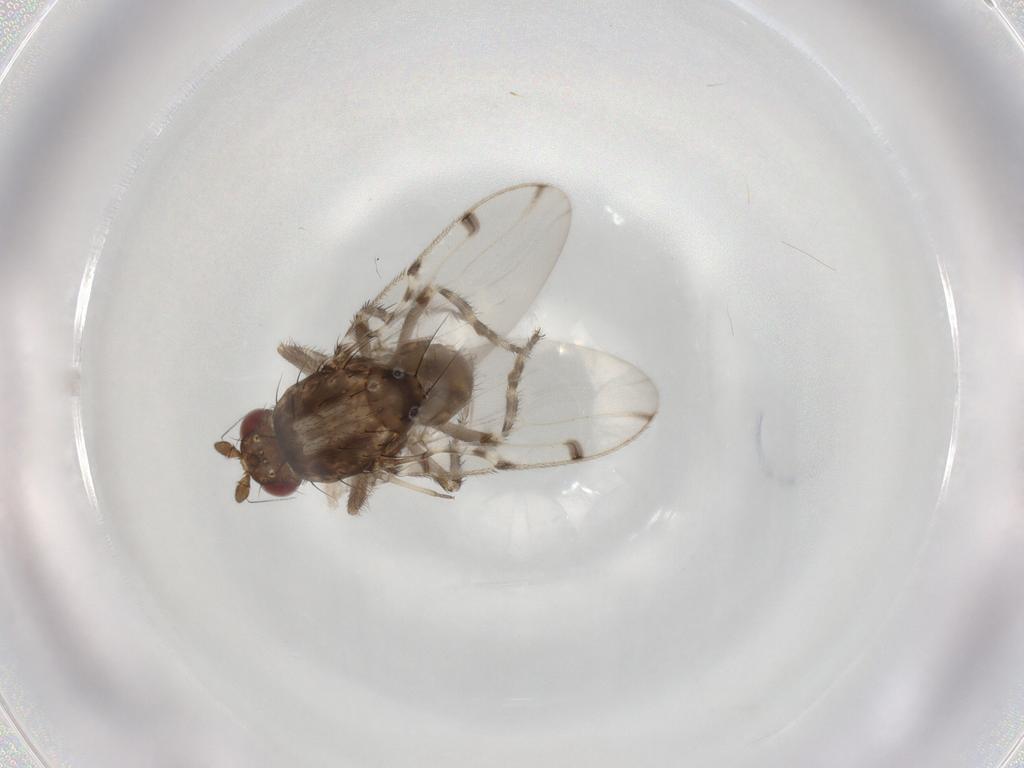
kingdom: Animalia
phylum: Arthropoda
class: Insecta
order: Diptera
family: Sphaeroceridae
